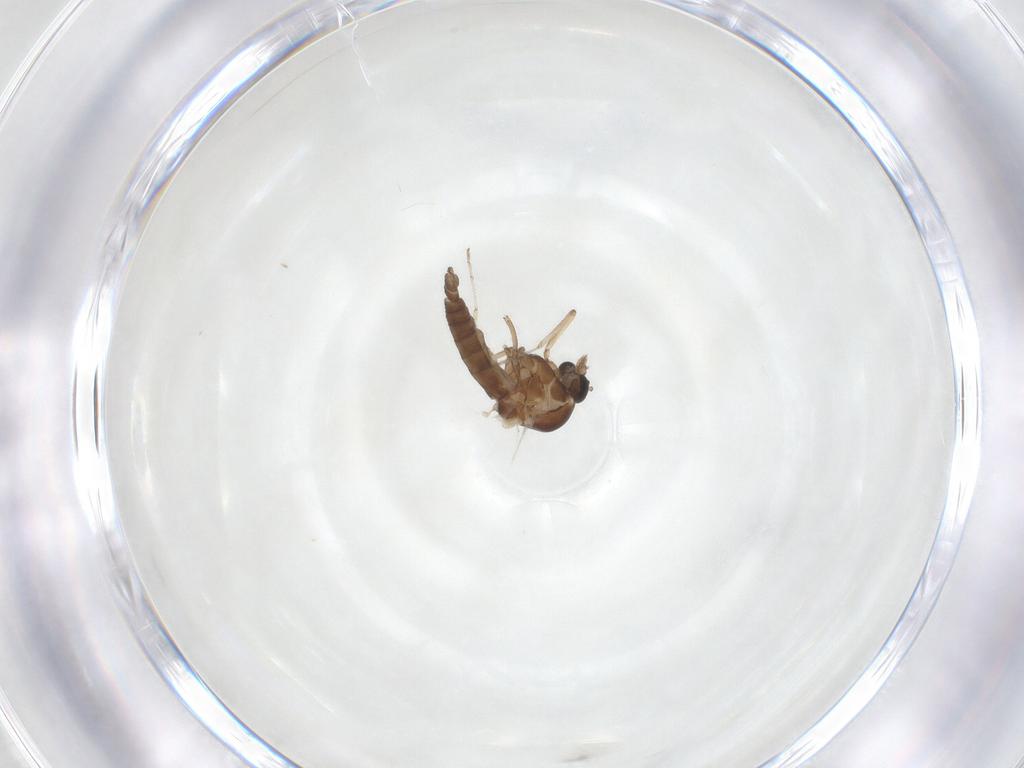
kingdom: Animalia
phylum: Arthropoda
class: Insecta
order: Diptera
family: Ceratopogonidae
